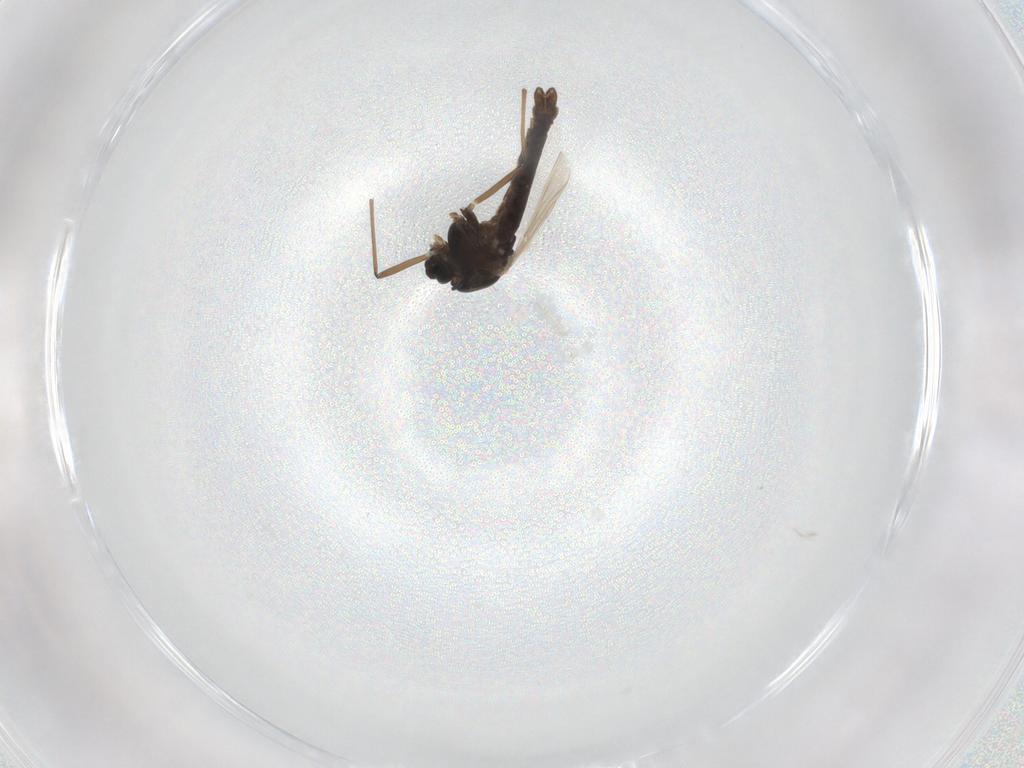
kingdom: Animalia
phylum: Arthropoda
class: Insecta
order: Diptera
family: Chironomidae
